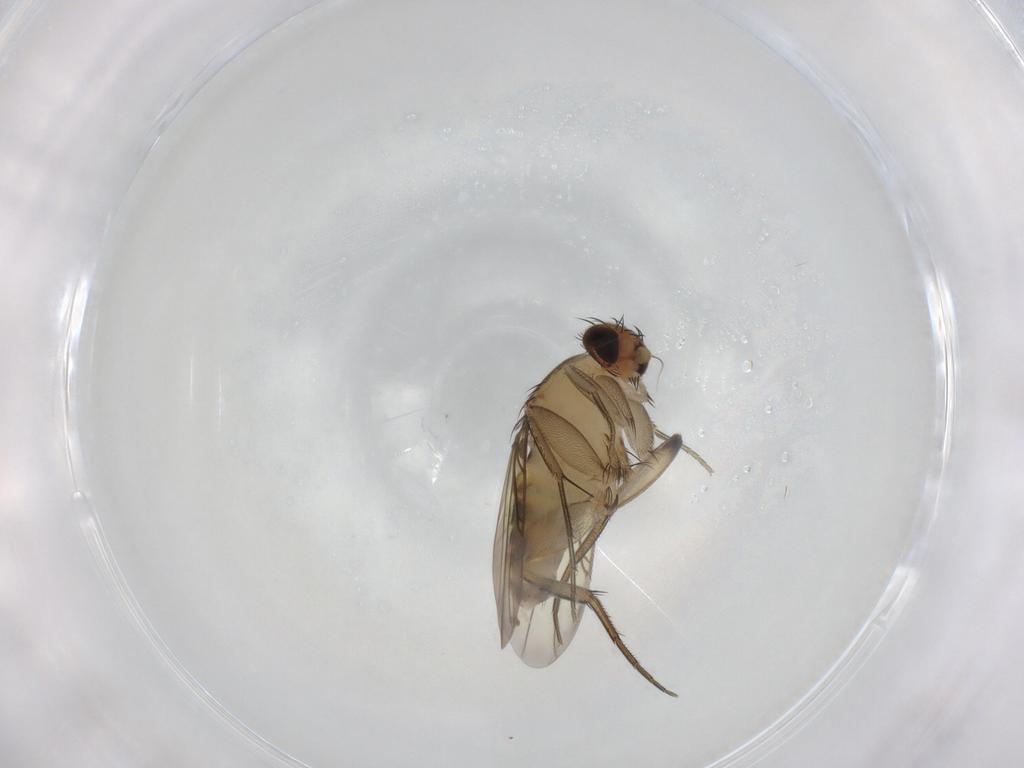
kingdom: Animalia
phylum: Arthropoda
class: Insecta
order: Diptera
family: Phoridae
